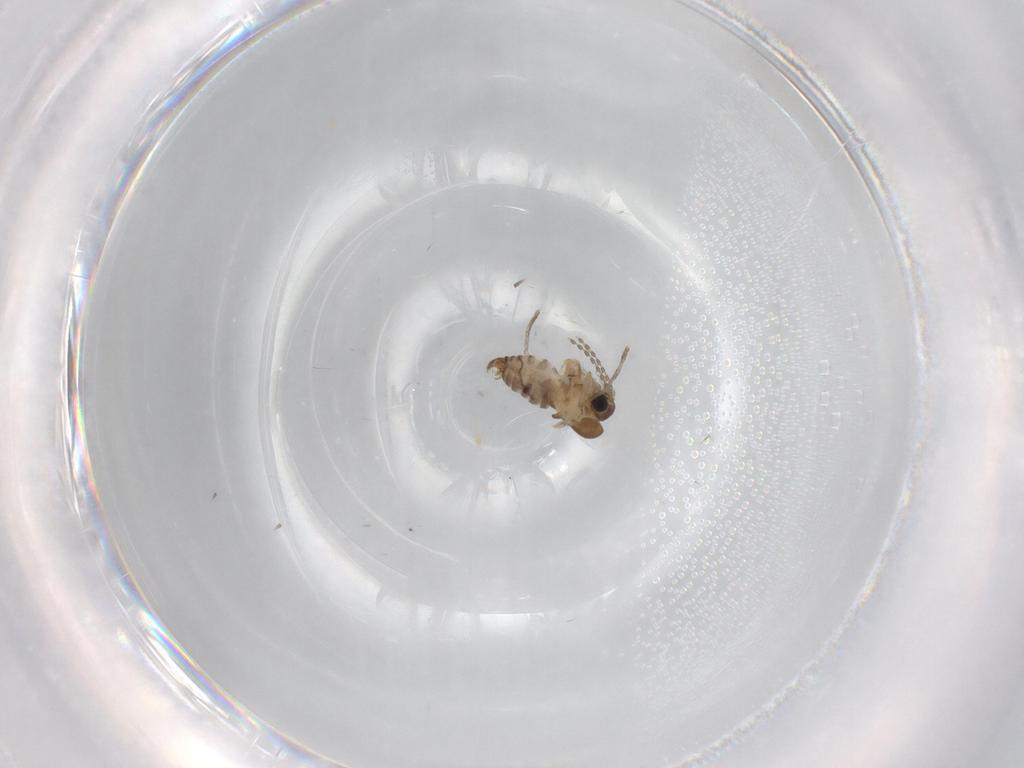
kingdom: Animalia
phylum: Arthropoda
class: Insecta
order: Diptera
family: Psychodidae
